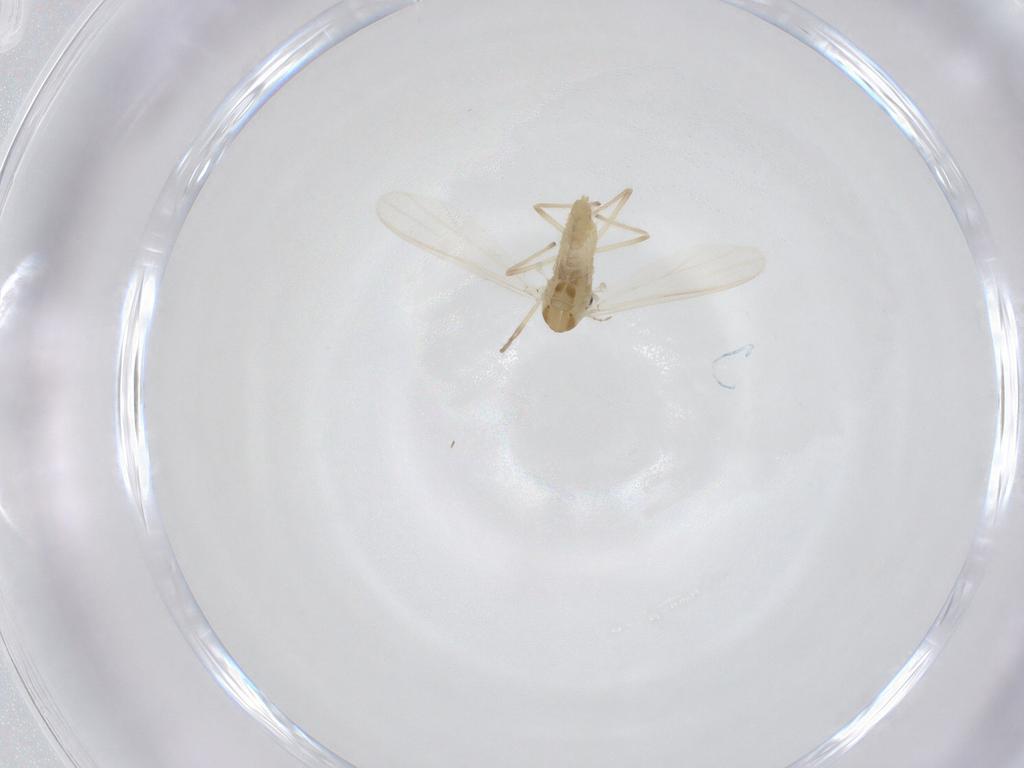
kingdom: Animalia
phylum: Arthropoda
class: Insecta
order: Diptera
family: Chironomidae
